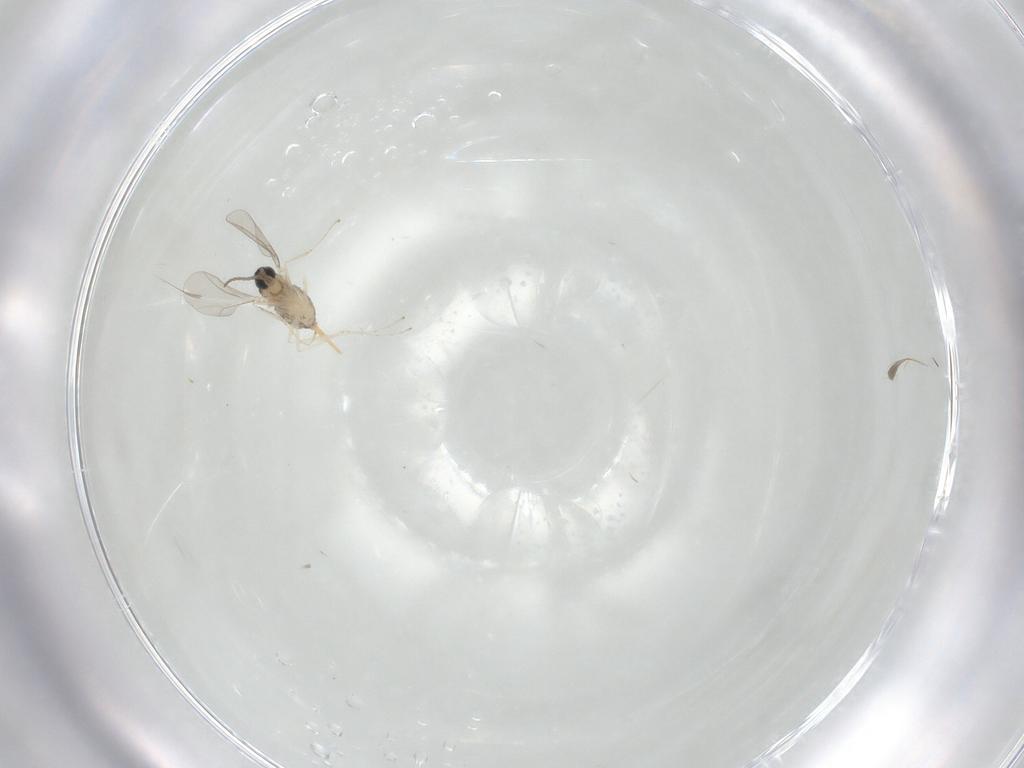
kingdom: Animalia
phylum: Arthropoda
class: Insecta
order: Diptera
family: Cecidomyiidae
